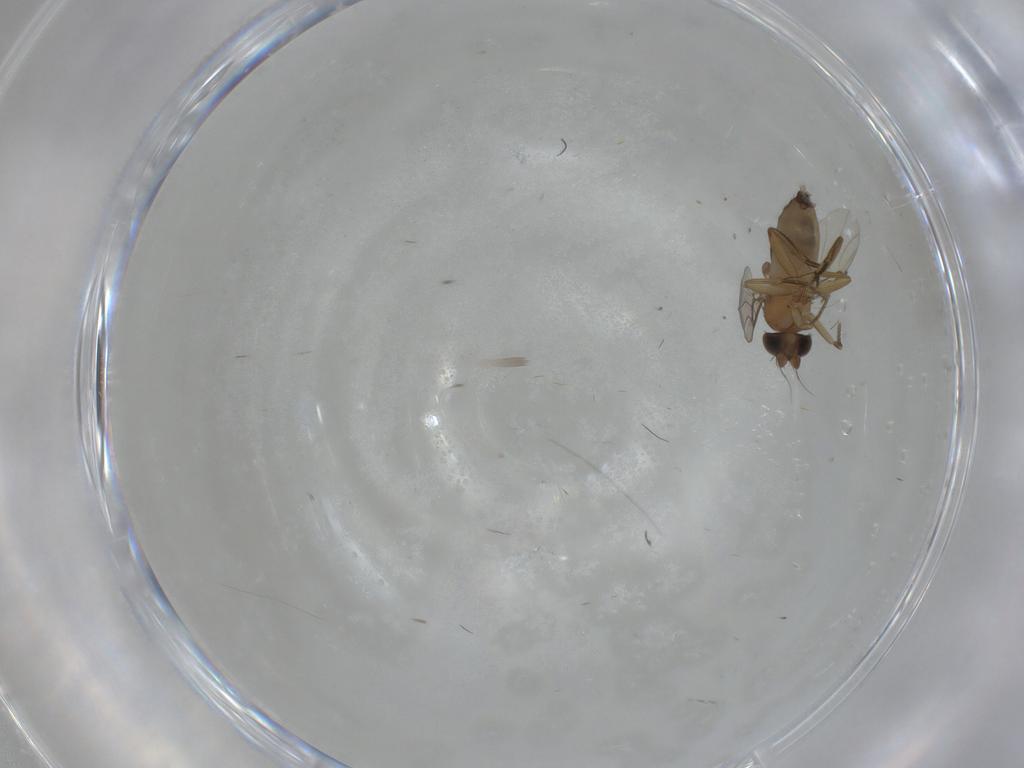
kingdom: Animalia
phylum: Arthropoda
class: Insecta
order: Diptera
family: Phoridae
